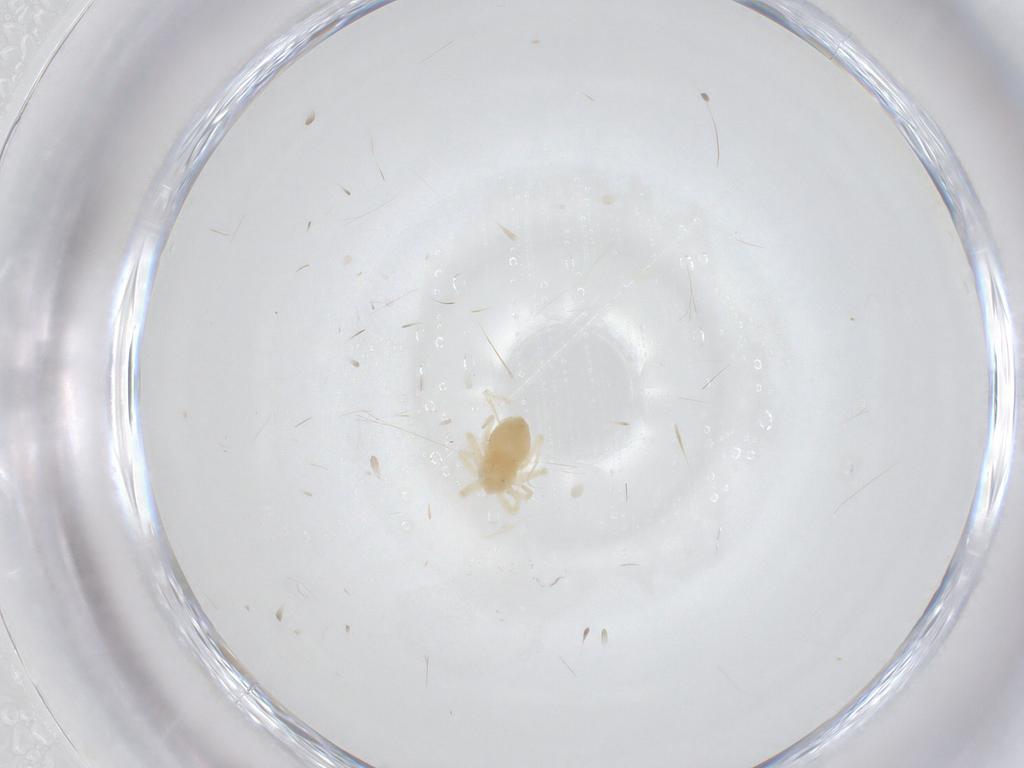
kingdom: Animalia
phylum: Arthropoda
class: Arachnida
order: Trombidiformes
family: Anystidae
